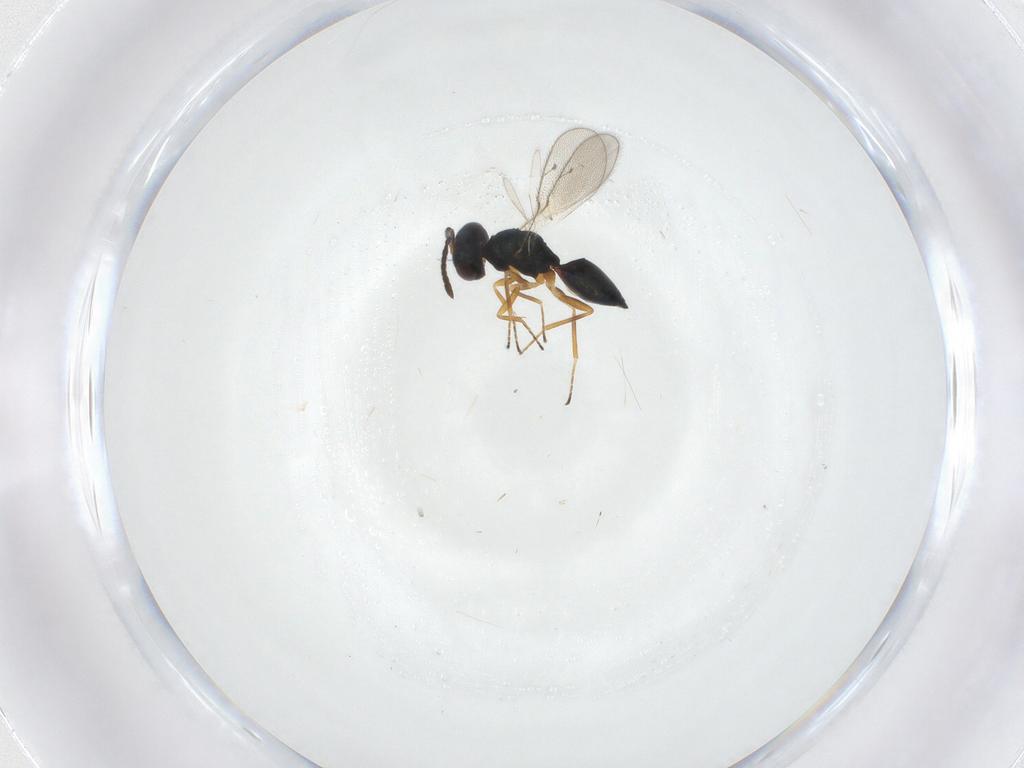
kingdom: Animalia
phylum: Arthropoda
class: Insecta
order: Hymenoptera
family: Pteromalidae
